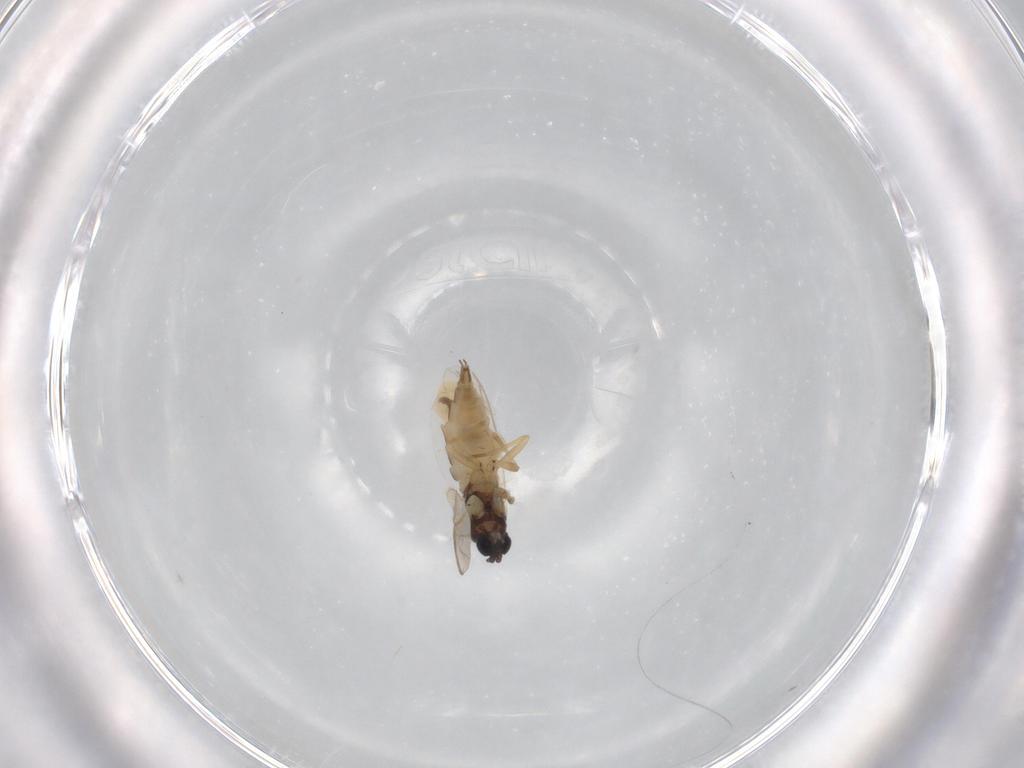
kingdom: Animalia
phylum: Arthropoda
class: Insecta
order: Diptera
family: Sciaridae
